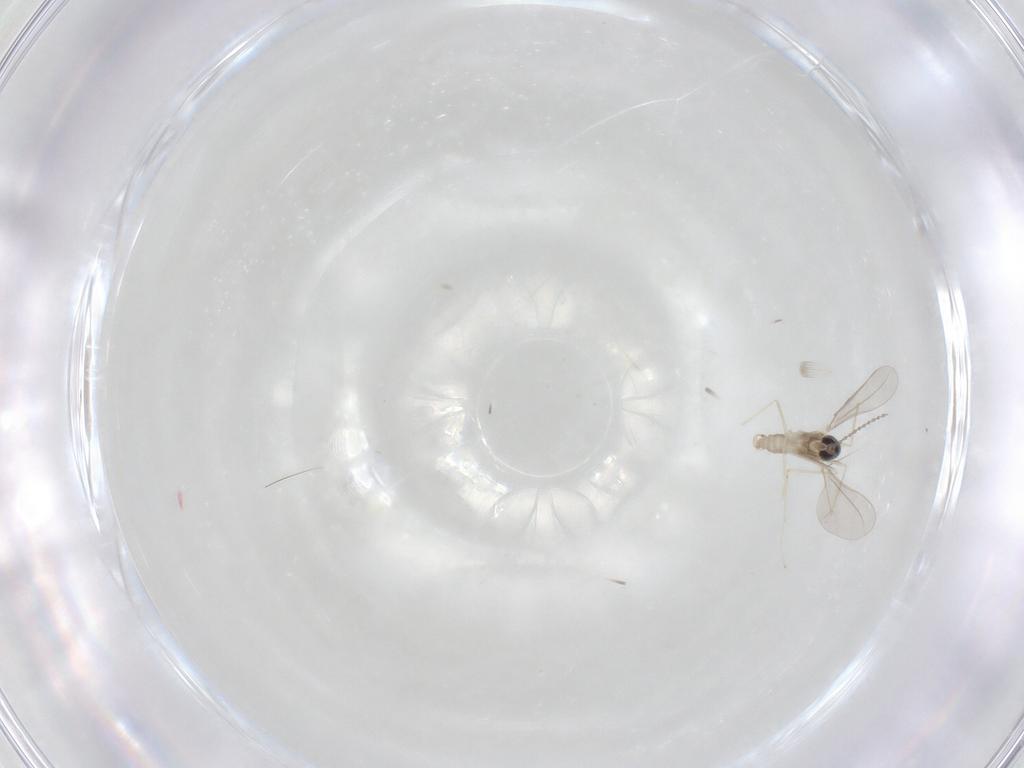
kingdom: Animalia
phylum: Arthropoda
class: Insecta
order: Diptera
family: Cecidomyiidae
